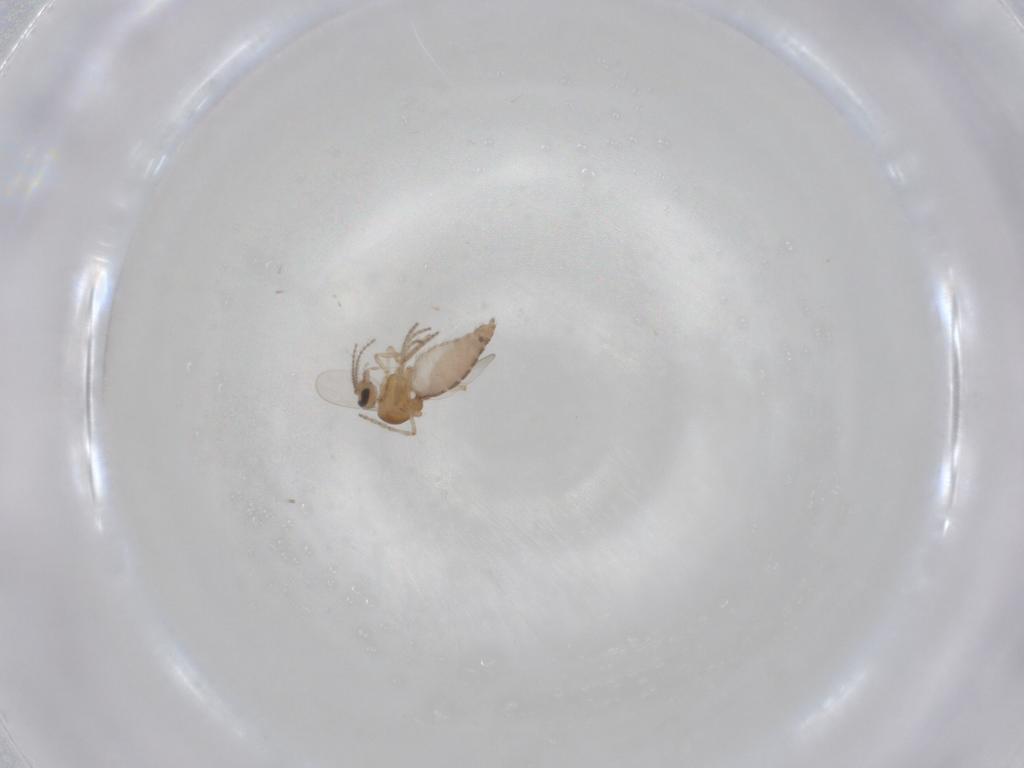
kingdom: Animalia
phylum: Arthropoda
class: Insecta
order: Diptera
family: Ceratopogonidae
